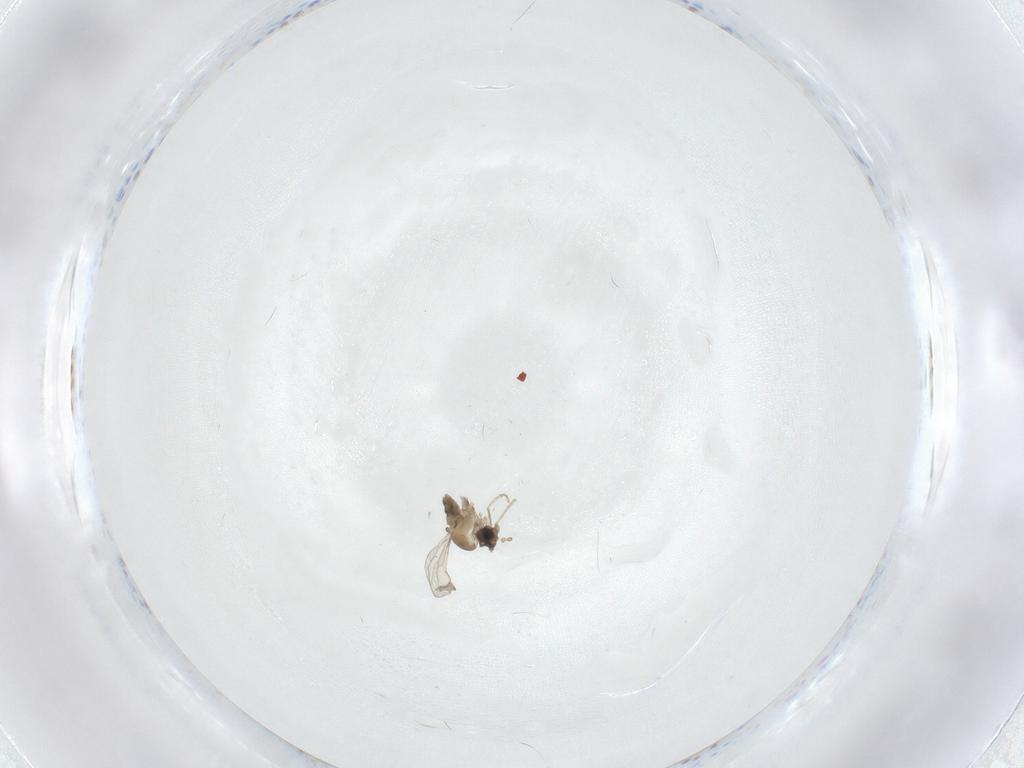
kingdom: Animalia
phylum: Arthropoda
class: Insecta
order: Diptera
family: Cecidomyiidae
